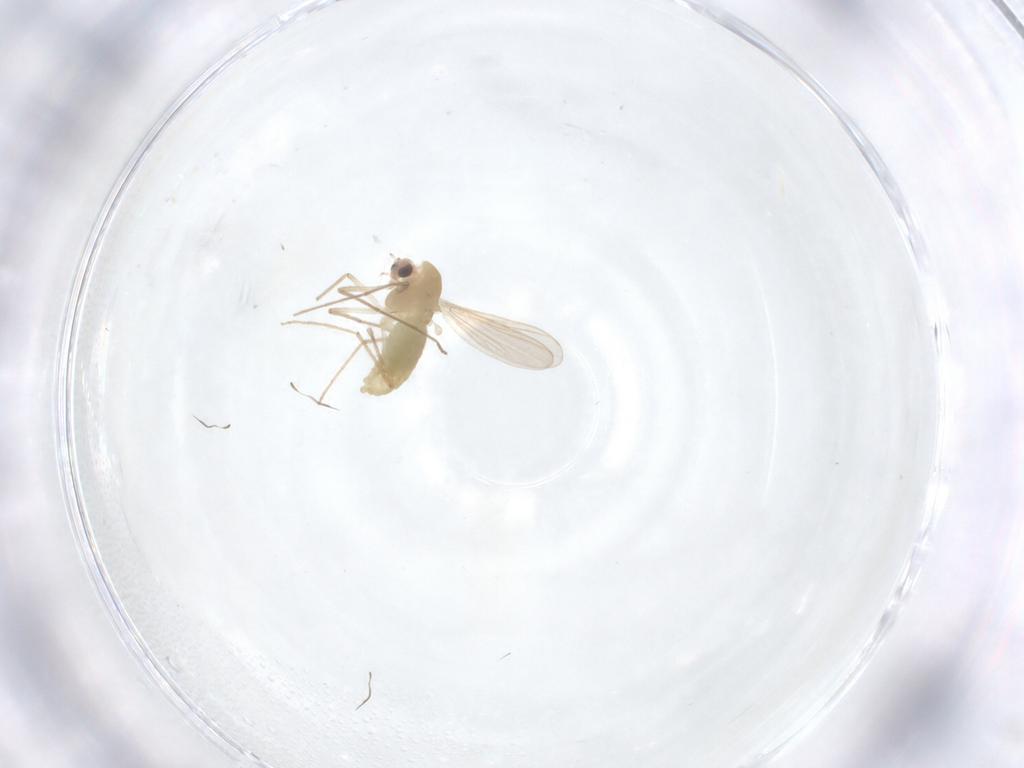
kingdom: Animalia
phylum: Arthropoda
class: Insecta
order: Diptera
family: Chironomidae
